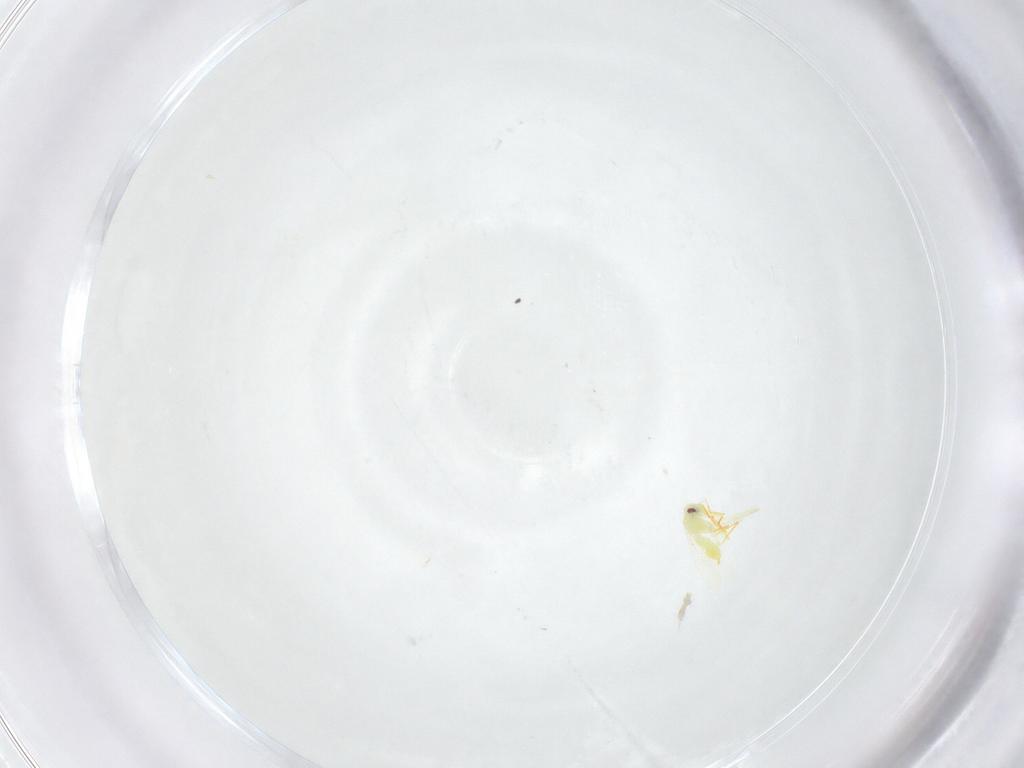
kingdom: Animalia
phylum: Arthropoda
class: Insecta
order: Hemiptera
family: Aleyrodidae
